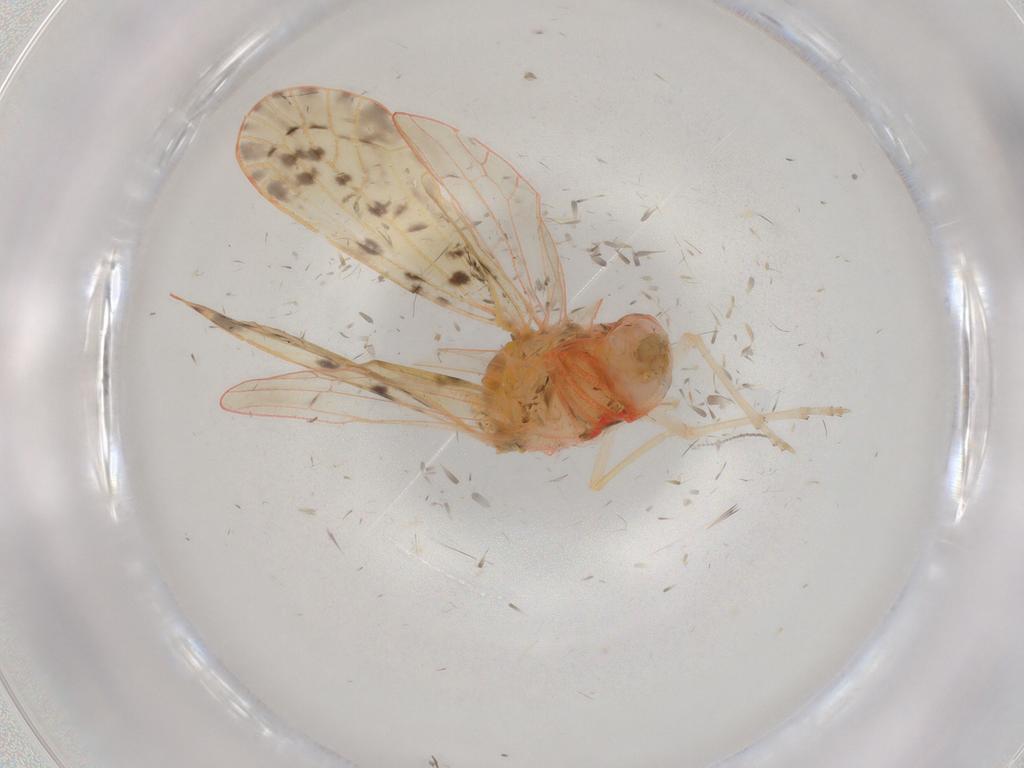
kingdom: Animalia
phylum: Arthropoda
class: Insecta
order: Hemiptera
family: Derbidae
